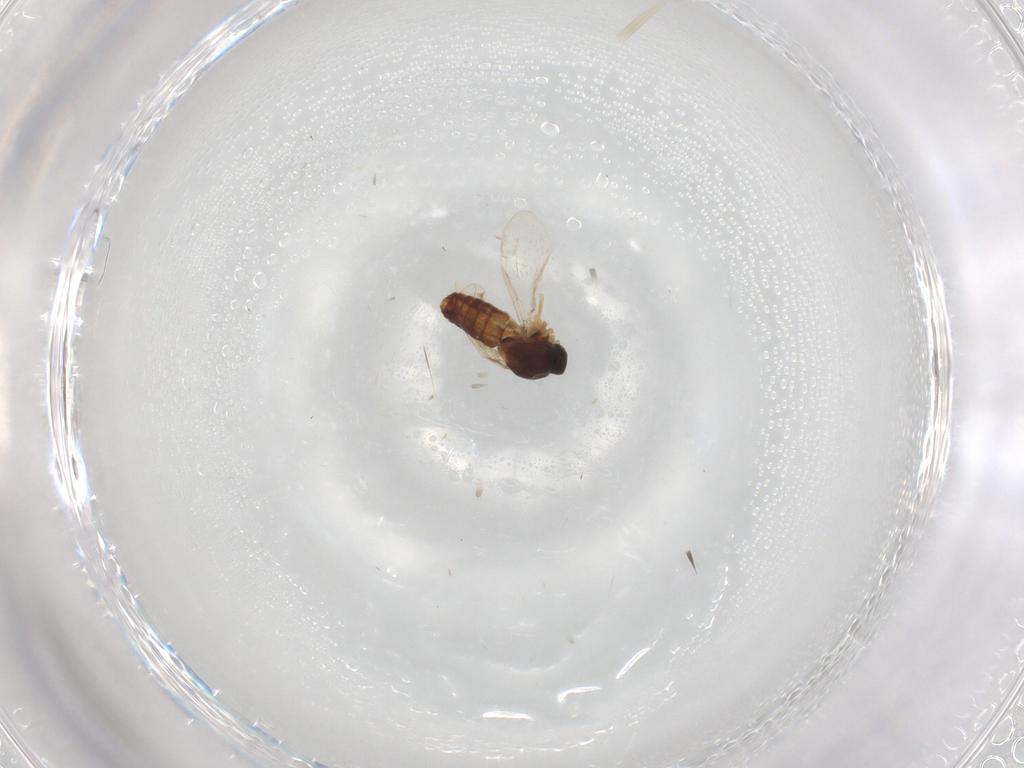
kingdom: Animalia
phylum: Arthropoda
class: Insecta
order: Diptera
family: Ceratopogonidae
